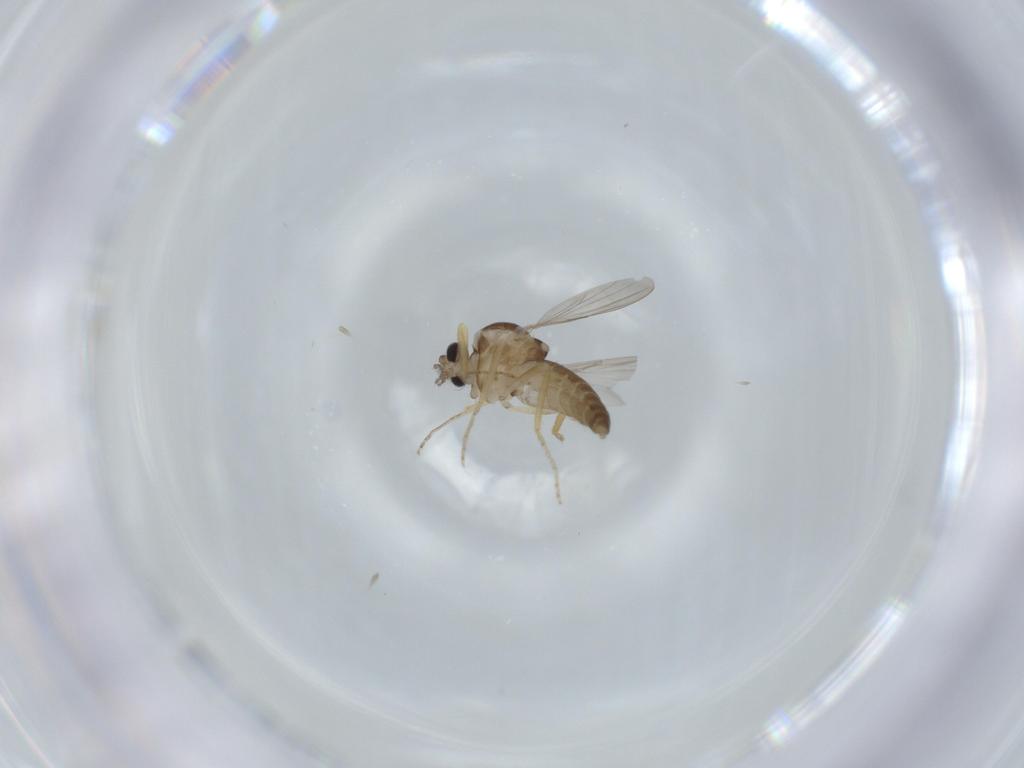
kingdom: Animalia
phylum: Arthropoda
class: Insecta
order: Diptera
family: Ceratopogonidae
